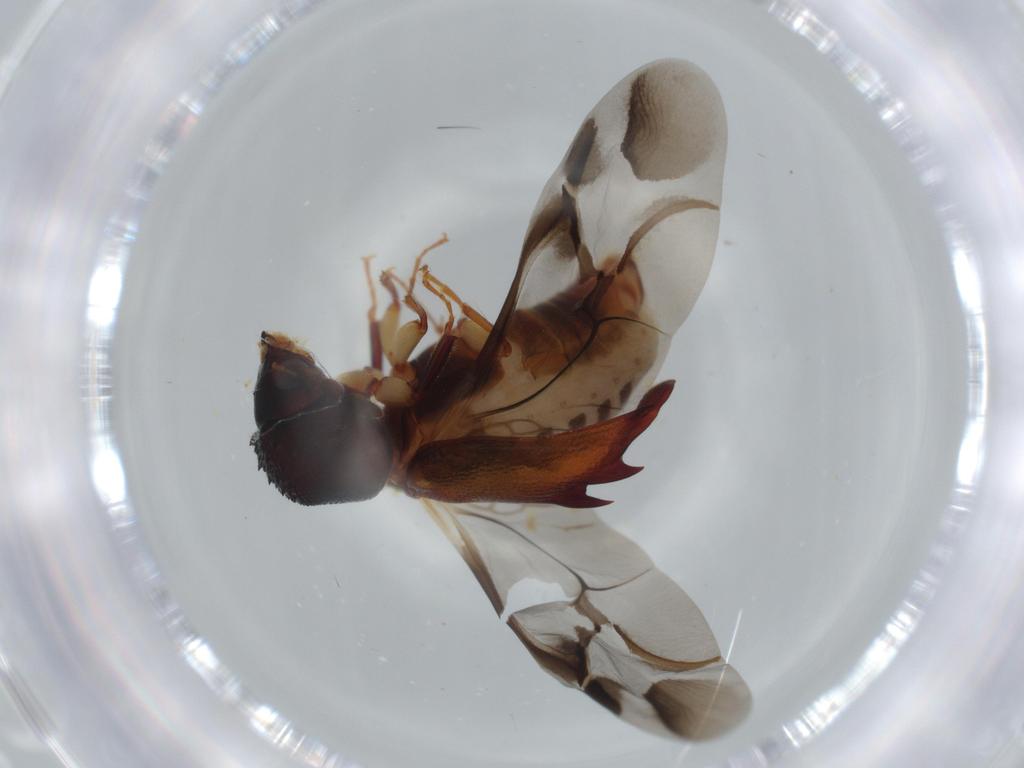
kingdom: Animalia
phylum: Arthropoda
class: Insecta
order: Coleoptera
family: Bostrichidae
